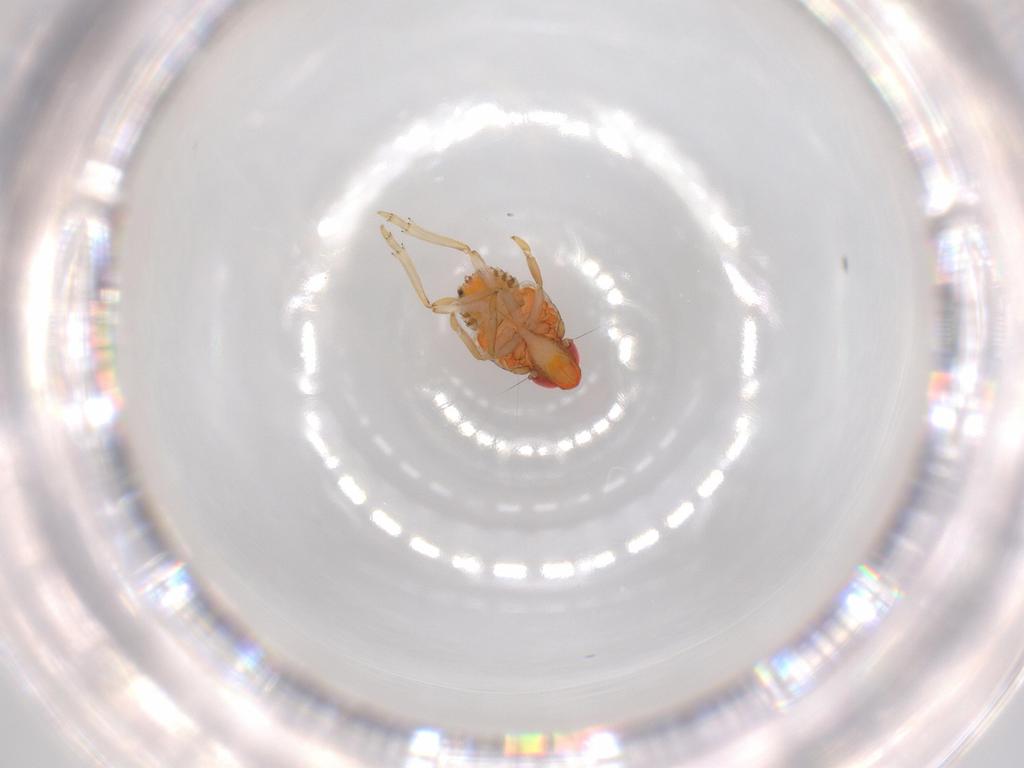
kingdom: Animalia
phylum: Arthropoda
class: Insecta
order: Hemiptera
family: Fulgoroidea_incertae_sedis
